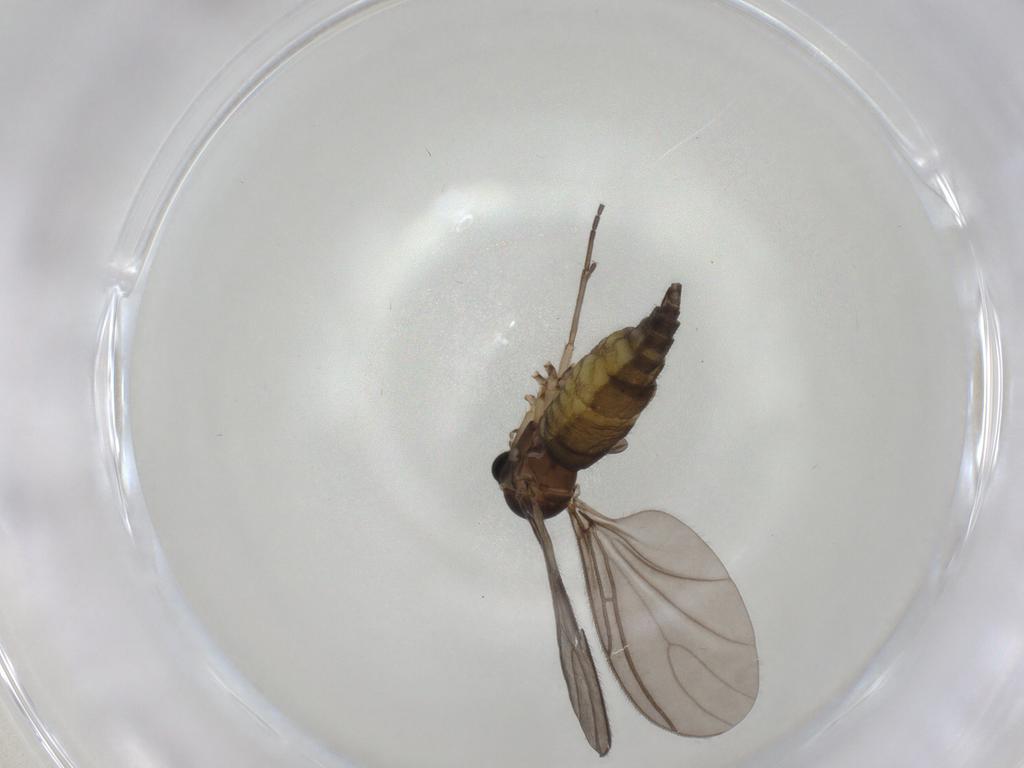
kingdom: Animalia
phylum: Arthropoda
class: Insecta
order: Diptera
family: Sciaridae
